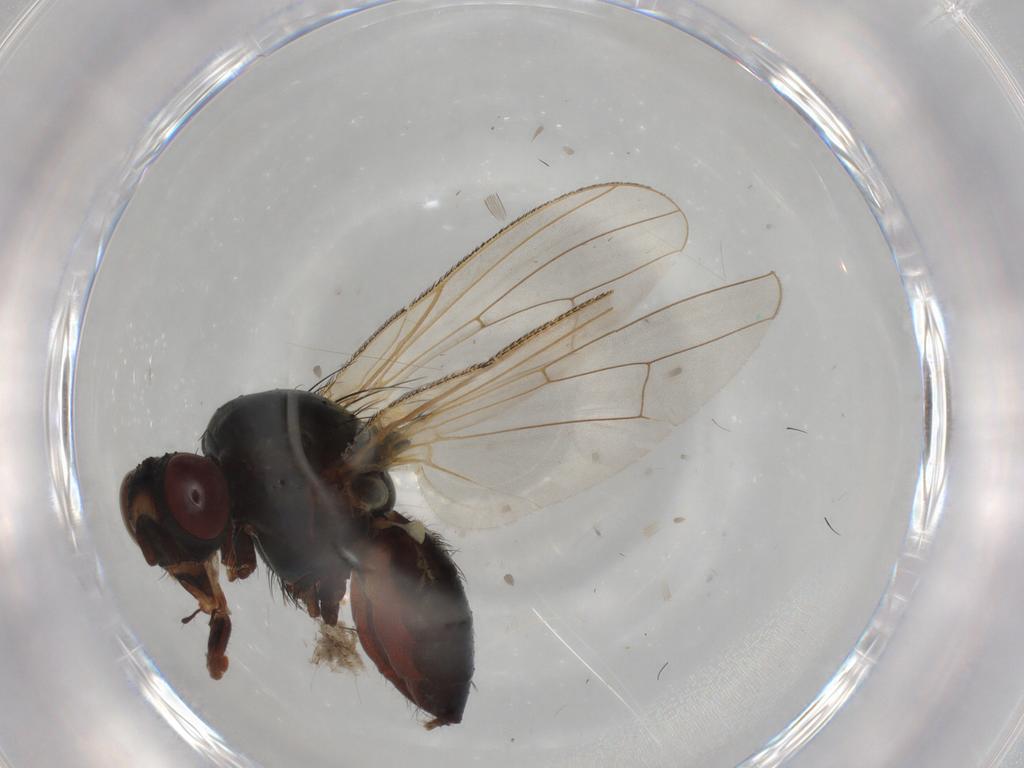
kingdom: Animalia
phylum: Arthropoda
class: Insecta
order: Diptera
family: Anthomyiidae
